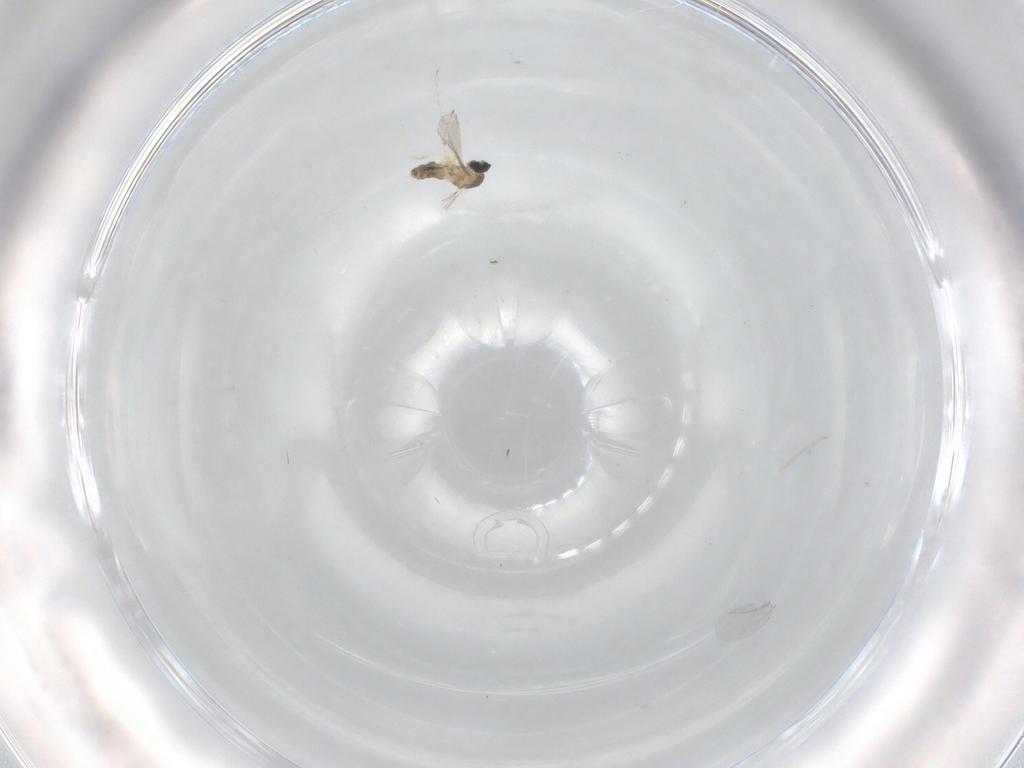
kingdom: Animalia
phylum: Arthropoda
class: Insecta
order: Diptera
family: Cecidomyiidae
